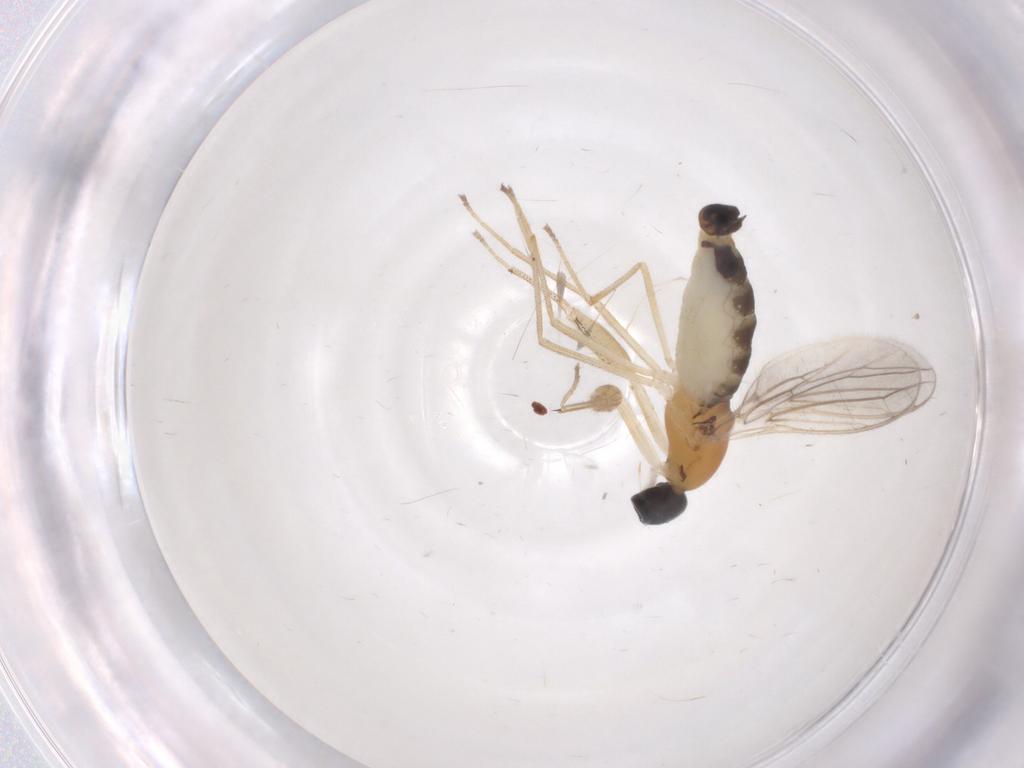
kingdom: Animalia
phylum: Arthropoda
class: Insecta
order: Diptera
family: Empididae
